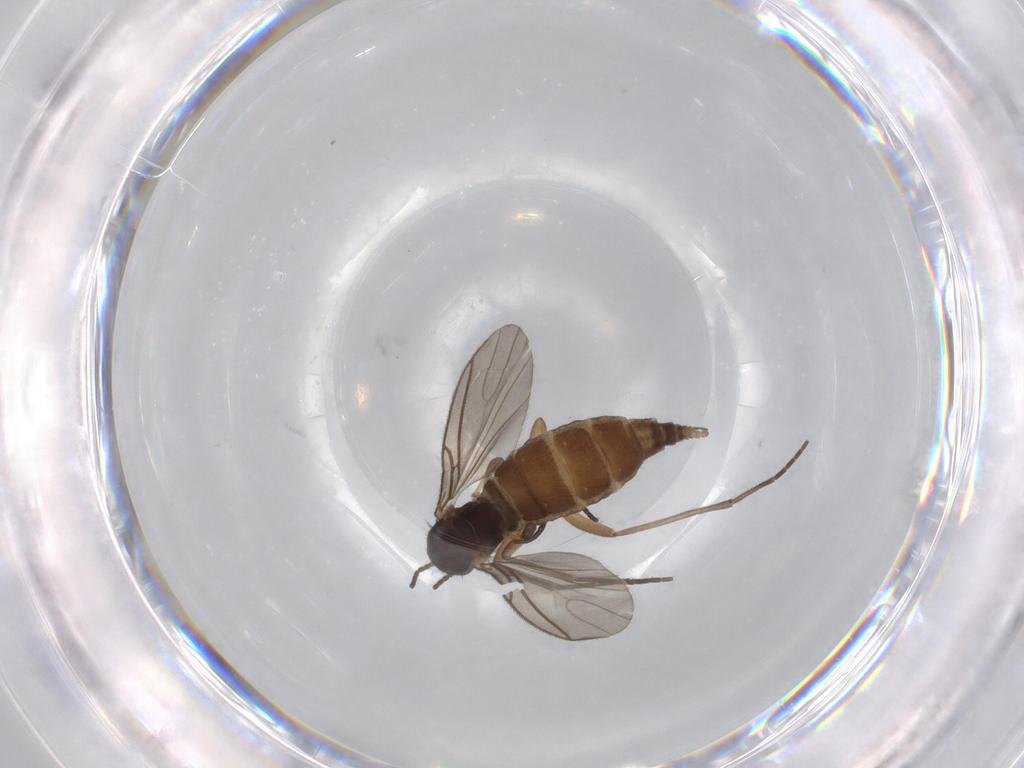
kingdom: Animalia
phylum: Arthropoda
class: Insecta
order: Diptera
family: Sciaridae
